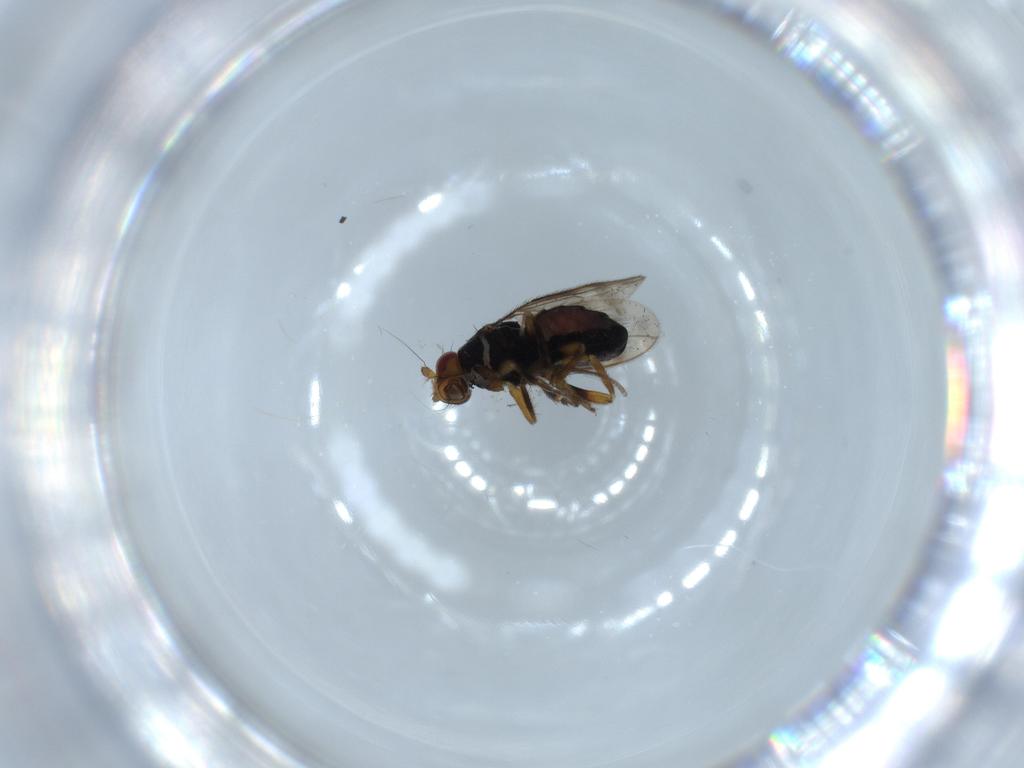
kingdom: Animalia
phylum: Arthropoda
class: Insecta
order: Diptera
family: Sphaeroceridae
